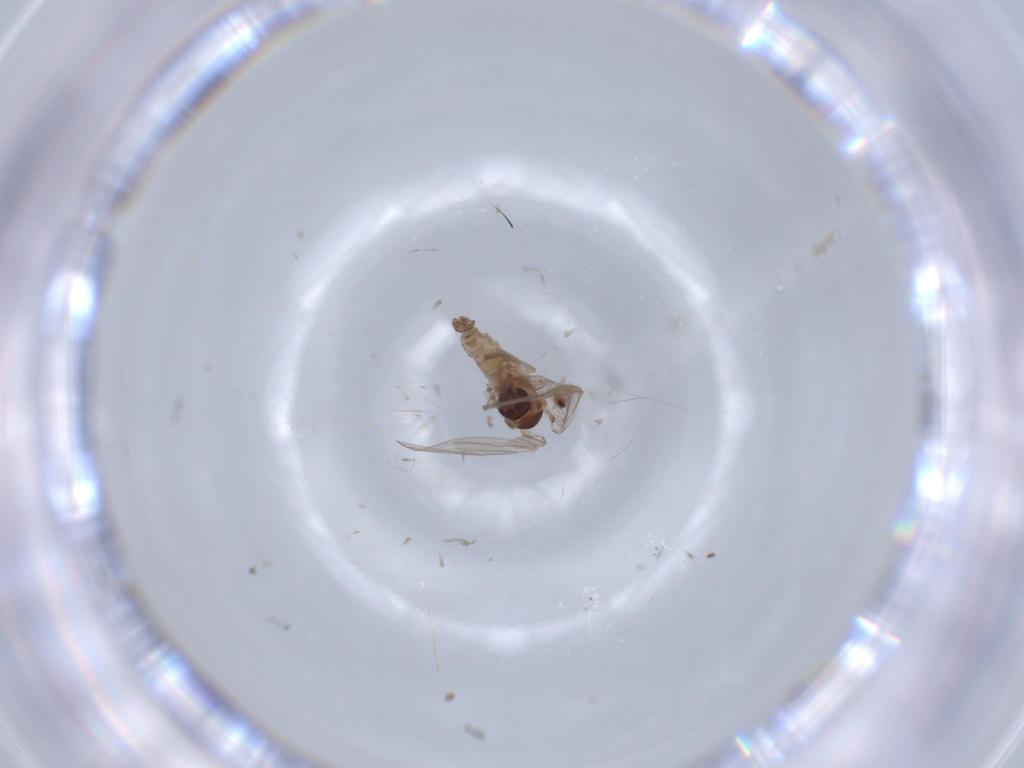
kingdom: Animalia
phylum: Arthropoda
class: Insecta
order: Diptera
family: Psychodidae
